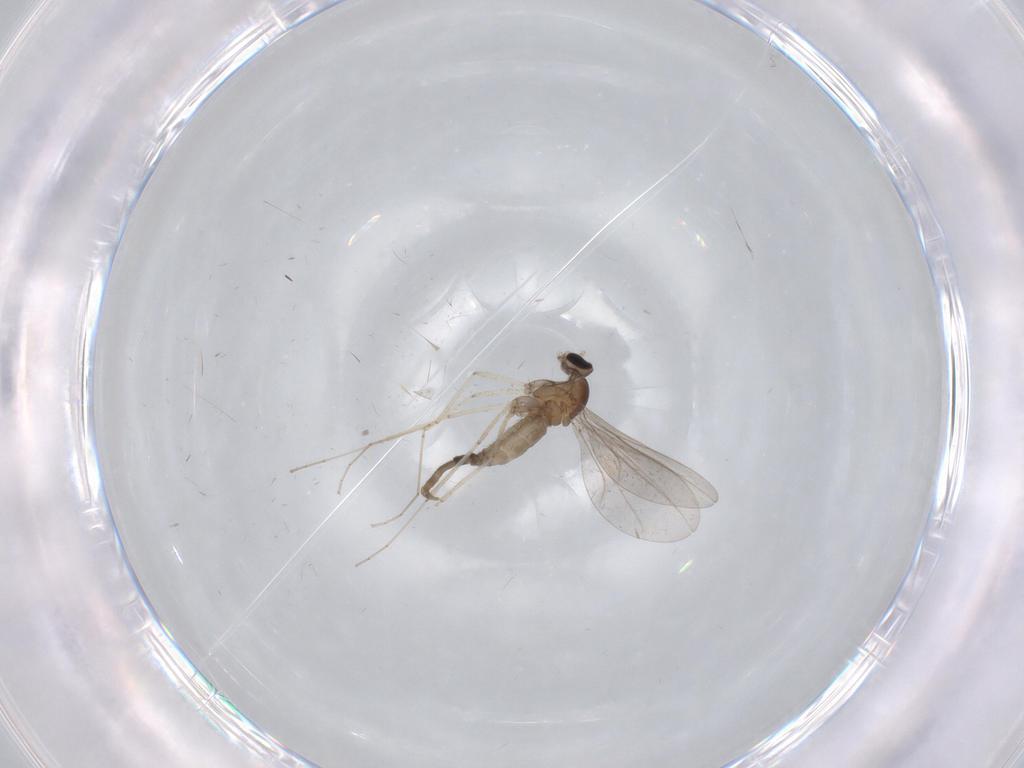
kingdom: Animalia
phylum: Arthropoda
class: Insecta
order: Diptera
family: Cecidomyiidae
